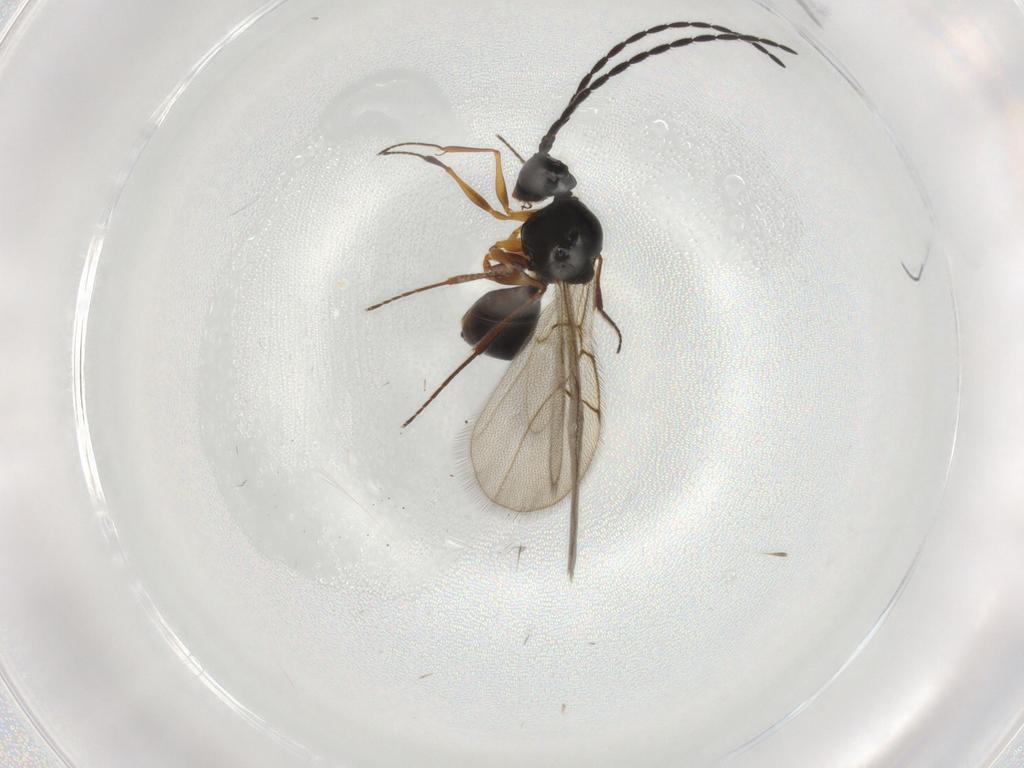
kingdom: Animalia
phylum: Arthropoda
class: Insecta
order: Hymenoptera
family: Figitidae
